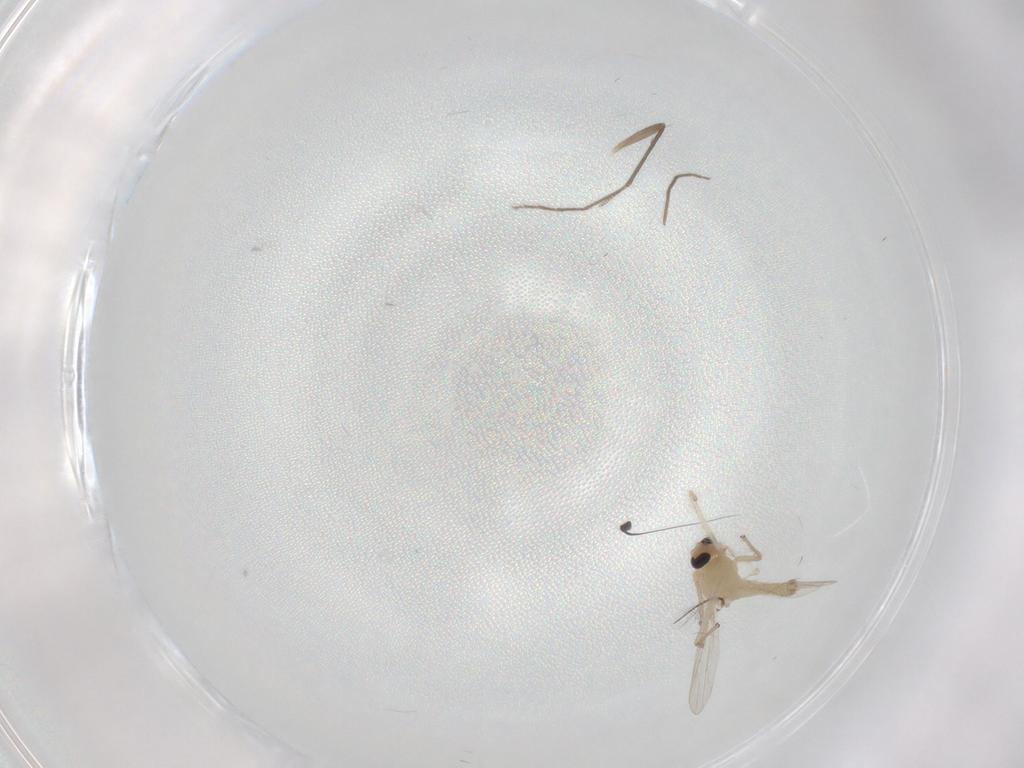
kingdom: Animalia
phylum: Arthropoda
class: Insecta
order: Diptera
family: Chironomidae
